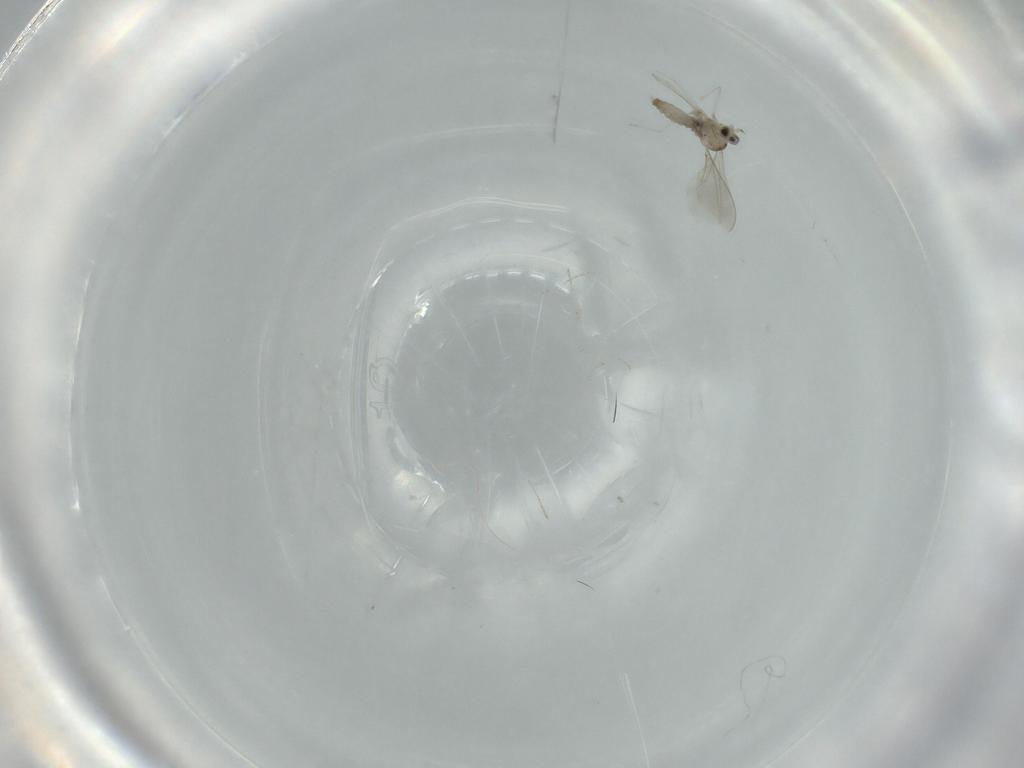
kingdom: Animalia
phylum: Arthropoda
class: Insecta
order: Diptera
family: Cecidomyiidae
